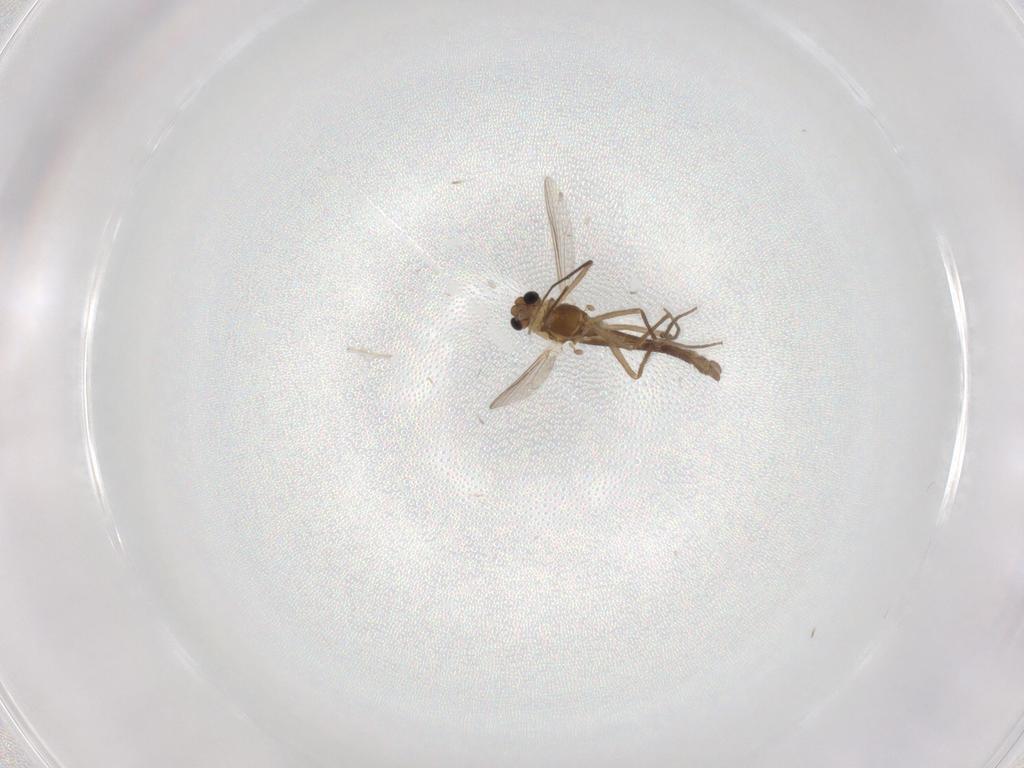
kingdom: Animalia
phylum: Arthropoda
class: Insecta
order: Diptera
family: Chironomidae
